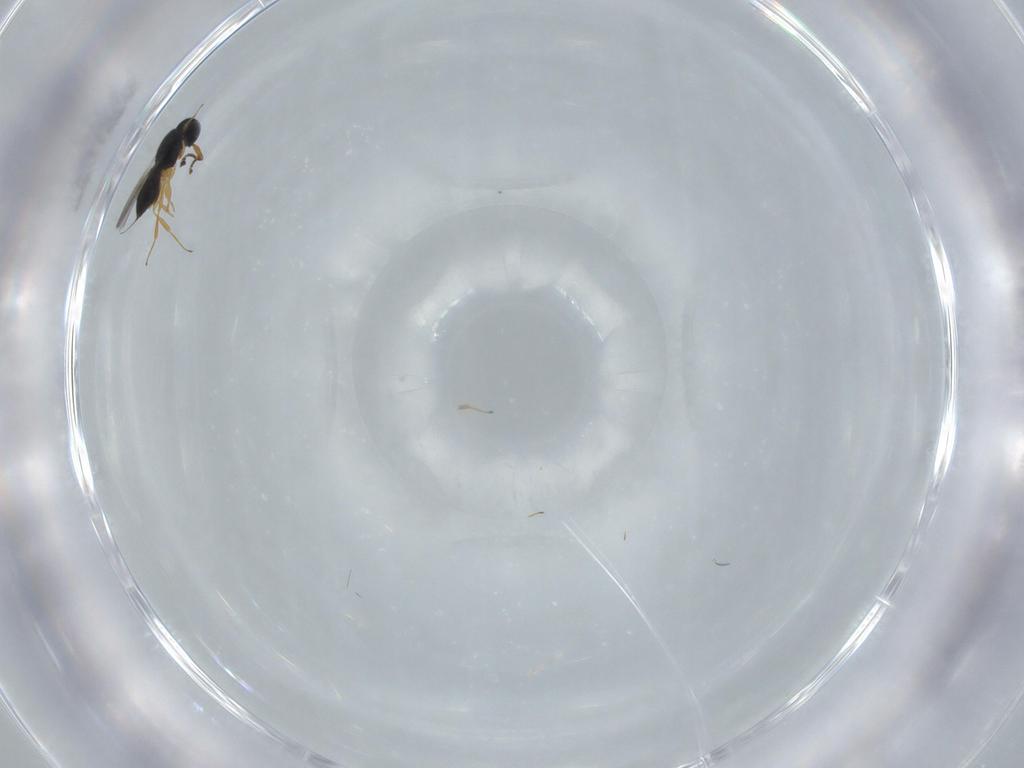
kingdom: Animalia
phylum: Arthropoda
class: Insecta
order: Hymenoptera
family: Scelionidae
